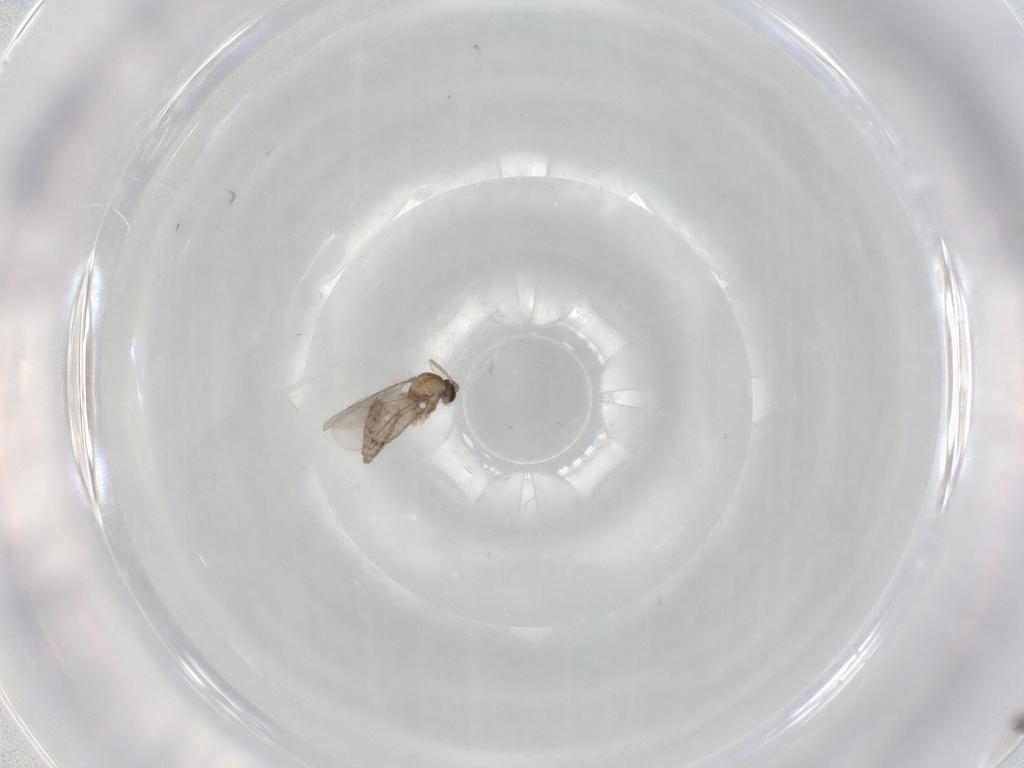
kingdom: Animalia
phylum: Arthropoda
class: Insecta
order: Diptera
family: Cecidomyiidae
